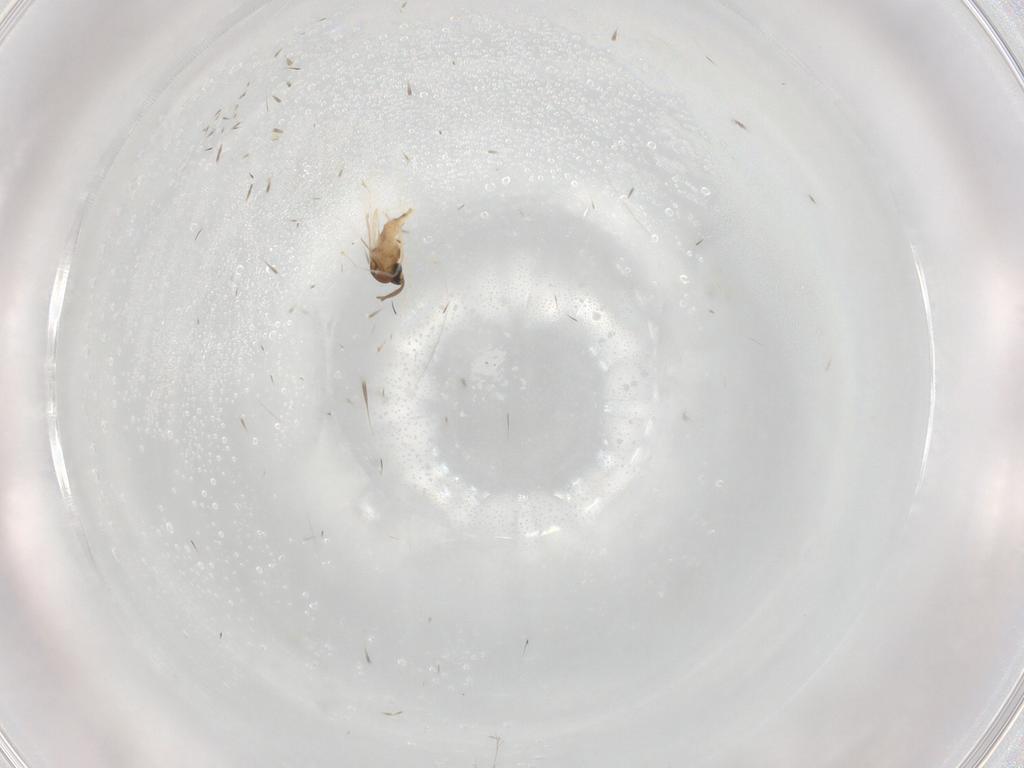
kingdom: Animalia
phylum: Arthropoda
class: Insecta
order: Diptera
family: Cecidomyiidae
